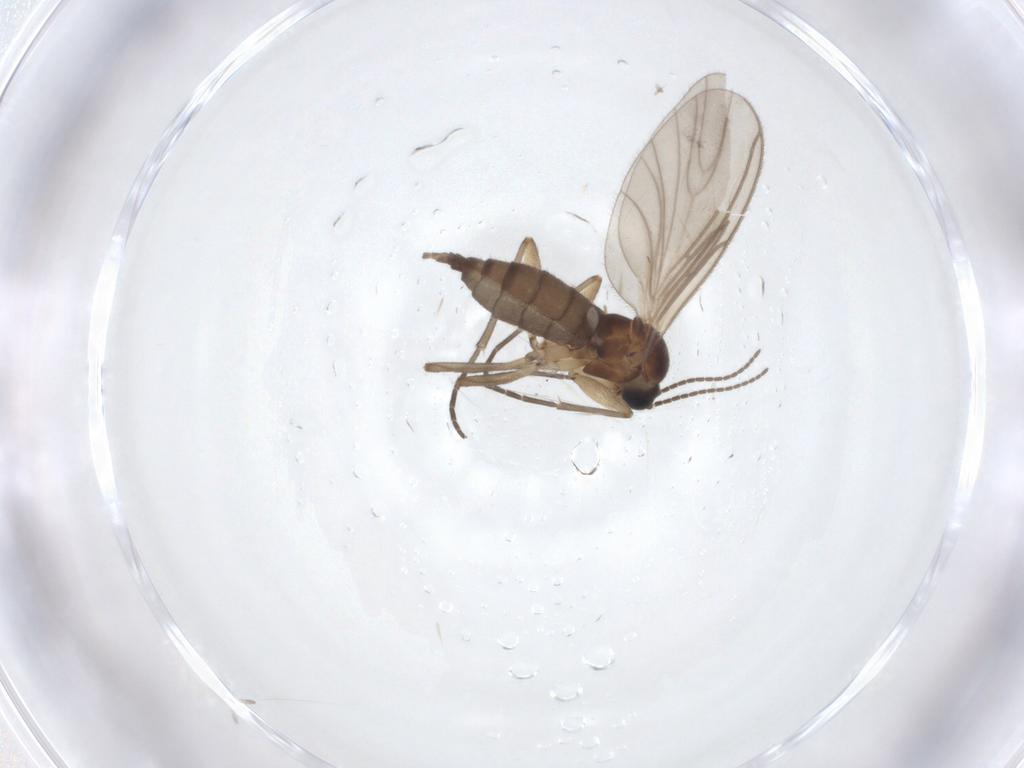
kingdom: Animalia
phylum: Arthropoda
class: Insecta
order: Diptera
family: Sciaridae
